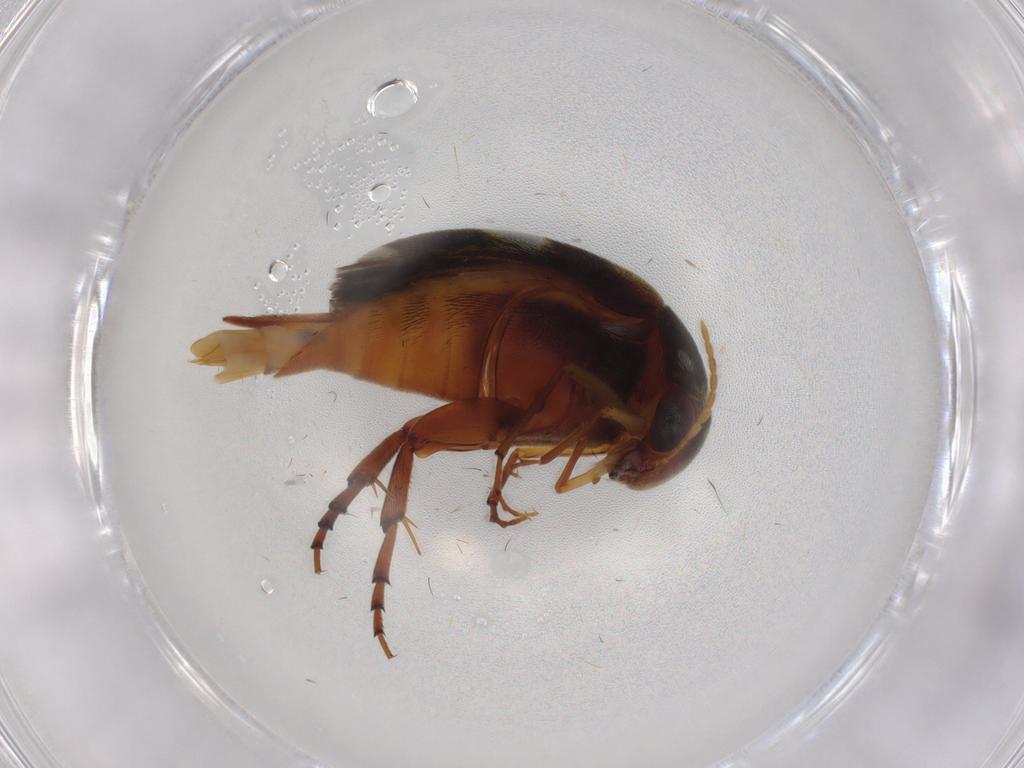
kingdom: Animalia
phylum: Arthropoda
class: Insecta
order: Coleoptera
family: Mordellidae
